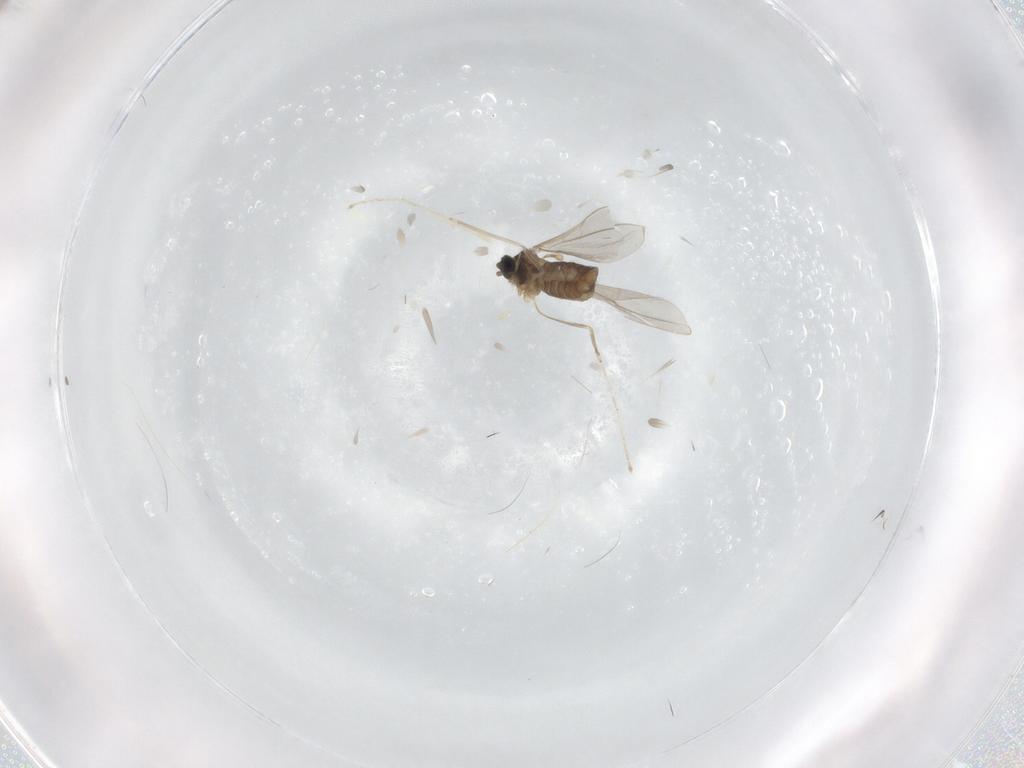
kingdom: Animalia
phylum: Arthropoda
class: Insecta
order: Diptera
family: Cecidomyiidae
